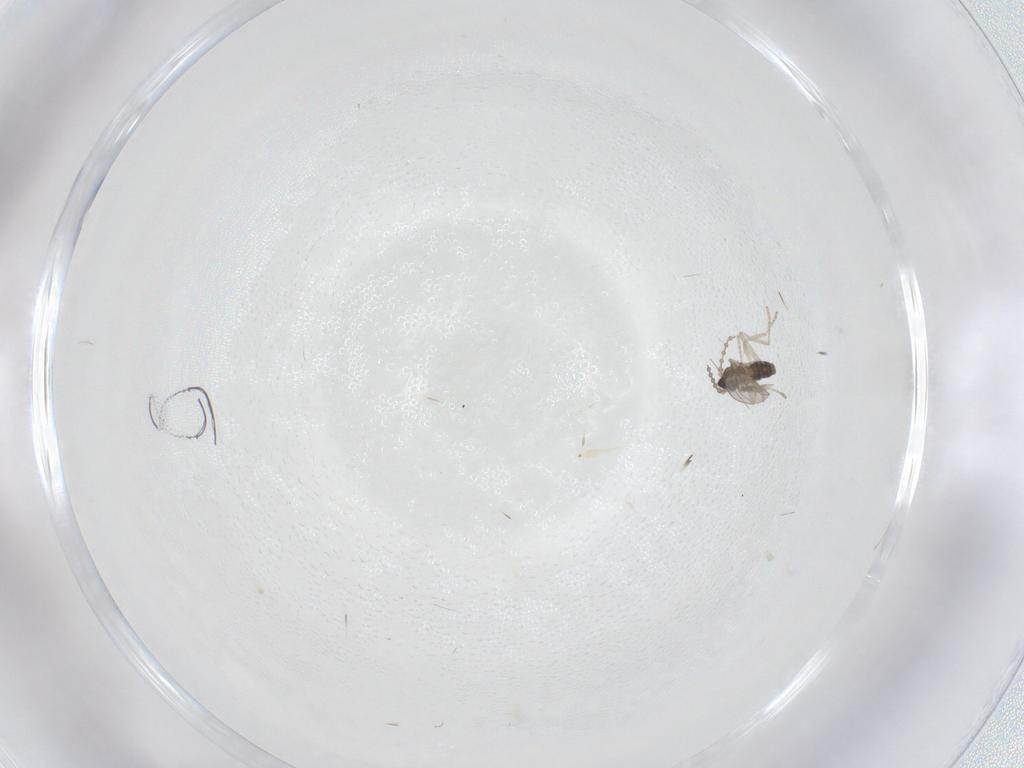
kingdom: Animalia
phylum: Arthropoda
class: Insecta
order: Diptera
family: Cecidomyiidae
